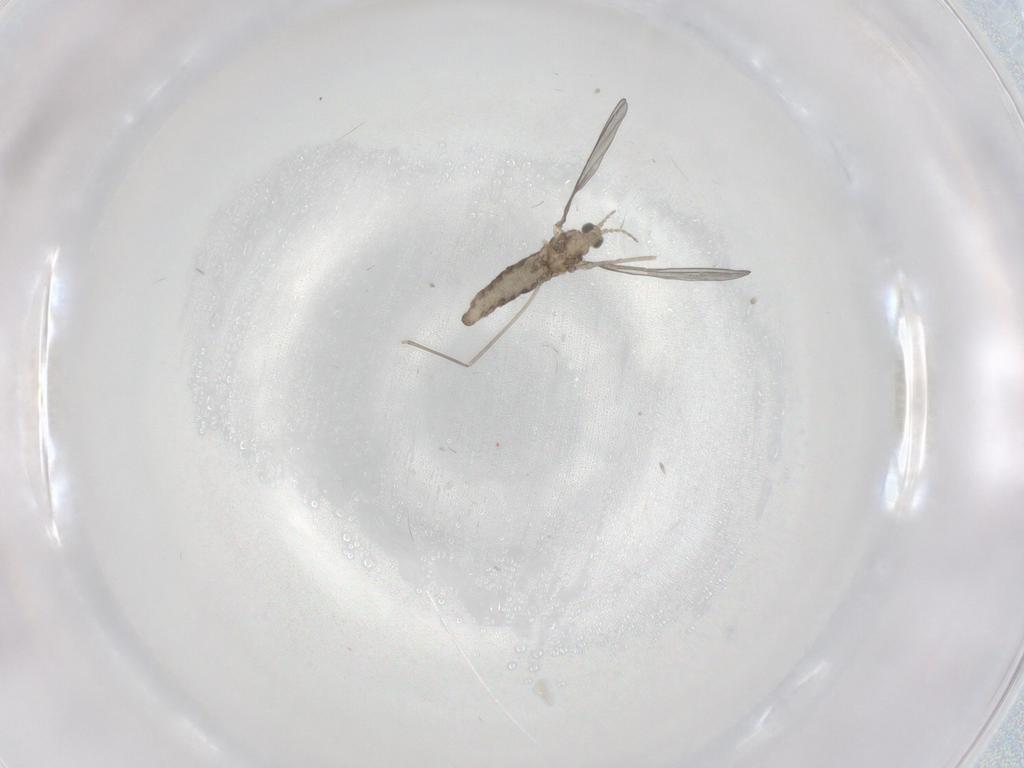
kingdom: Animalia
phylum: Arthropoda
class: Insecta
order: Diptera
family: Cecidomyiidae
